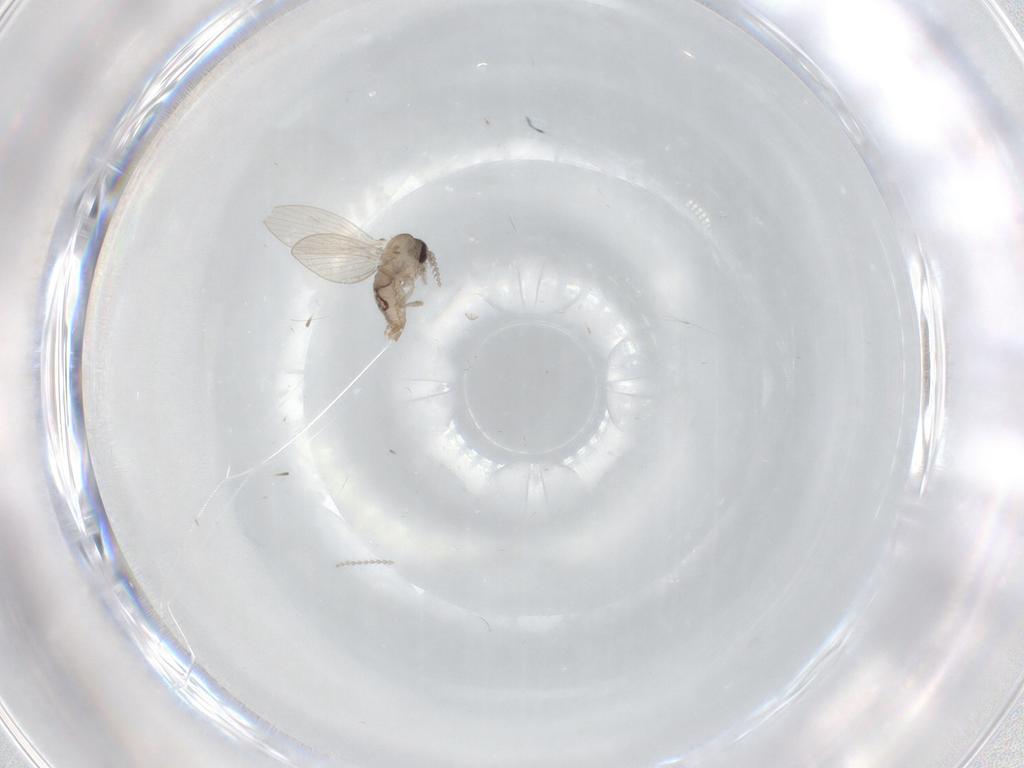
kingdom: Animalia
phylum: Arthropoda
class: Insecta
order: Diptera
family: Psychodidae
